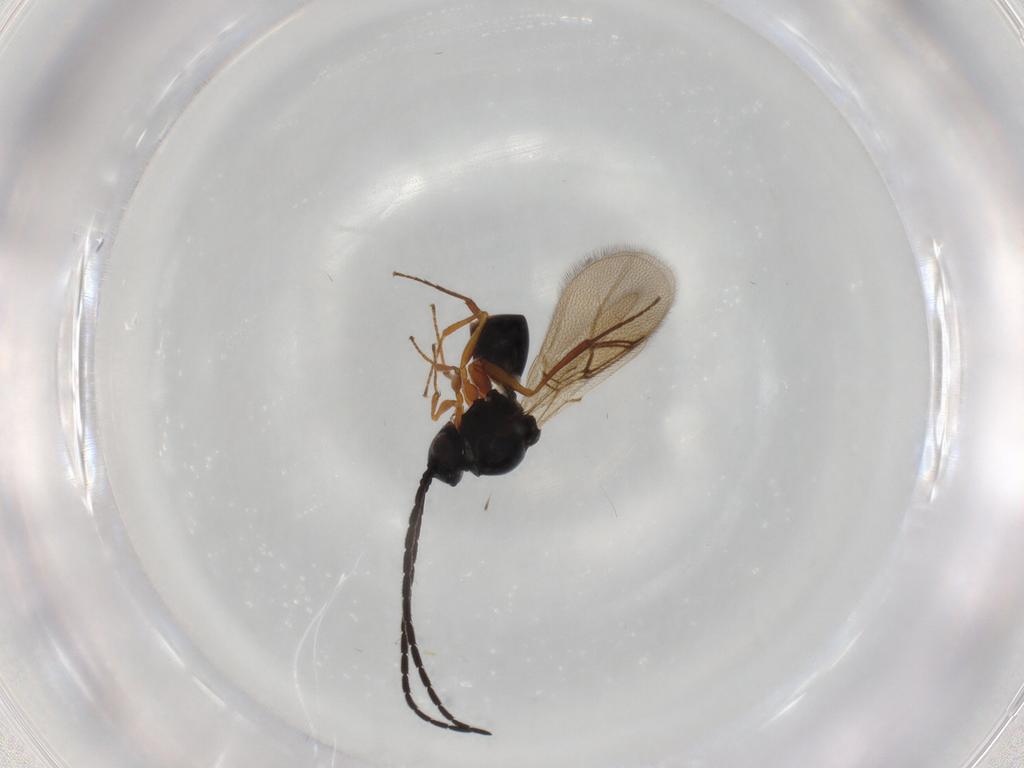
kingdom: Animalia
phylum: Arthropoda
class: Insecta
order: Hymenoptera
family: Figitidae
